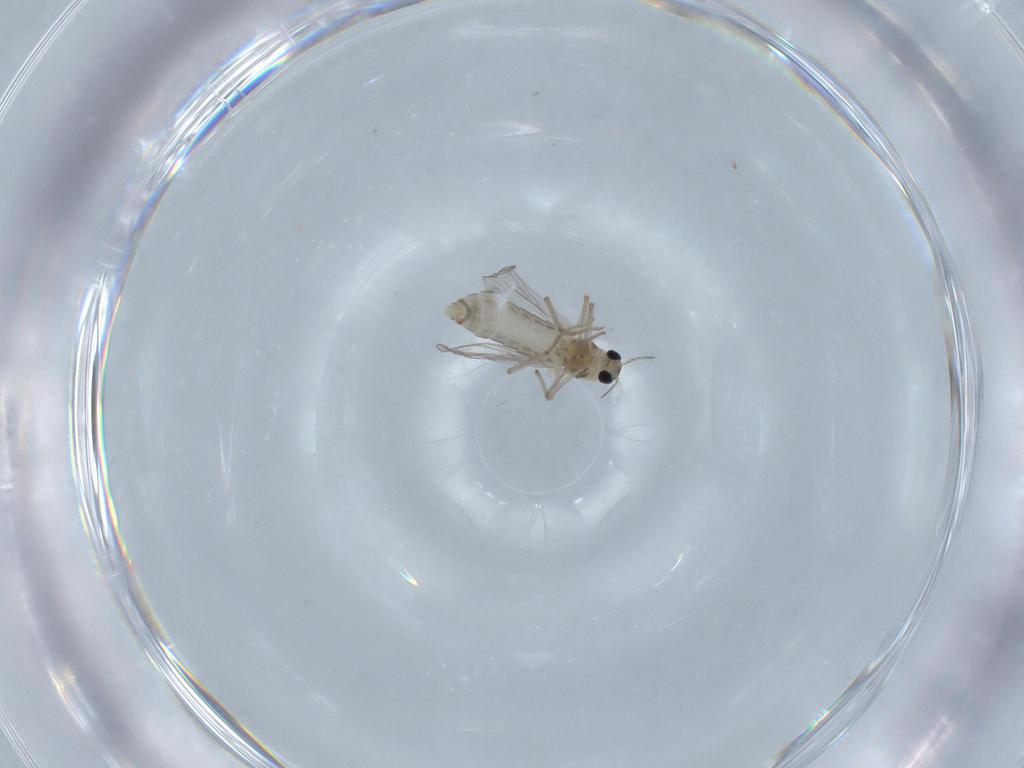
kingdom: Animalia
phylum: Arthropoda
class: Insecta
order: Diptera
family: Chironomidae
